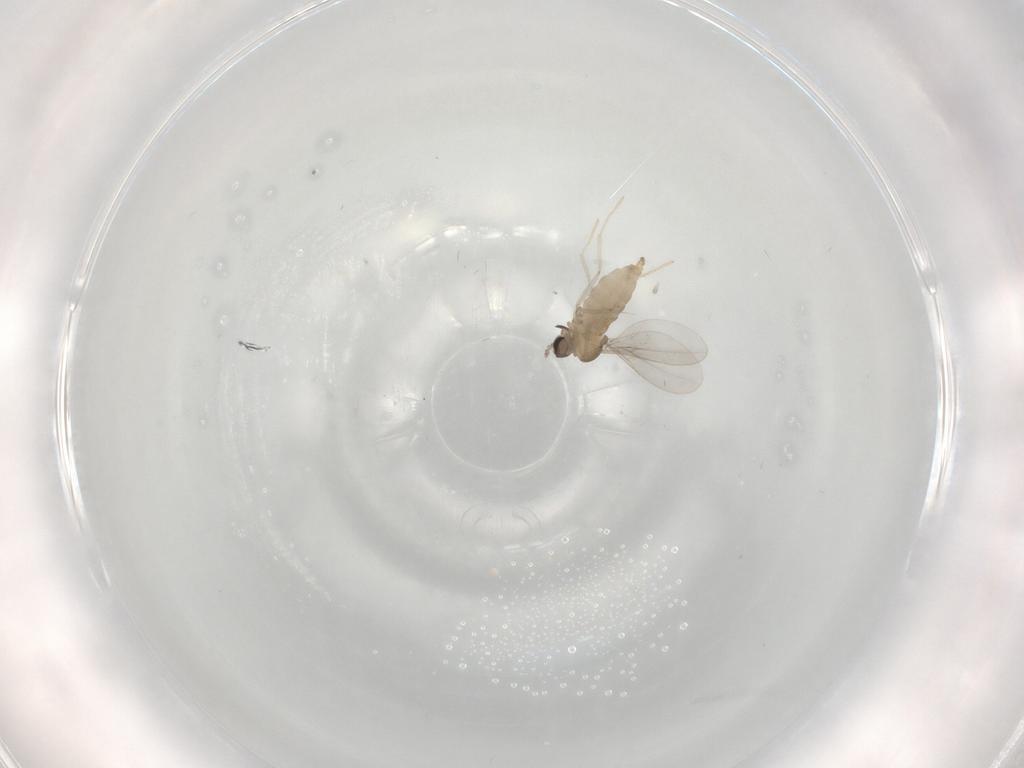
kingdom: Animalia
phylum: Arthropoda
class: Insecta
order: Diptera
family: Cecidomyiidae
